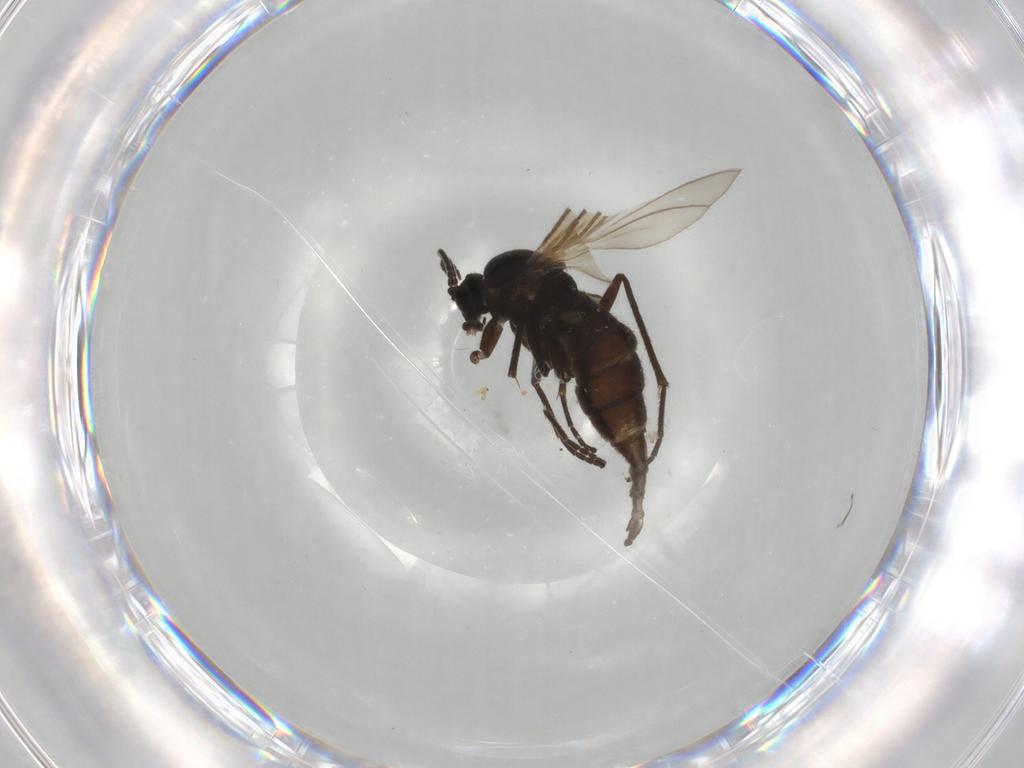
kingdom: Animalia
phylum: Arthropoda
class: Insecta
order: Diptera
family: Sciaridae
